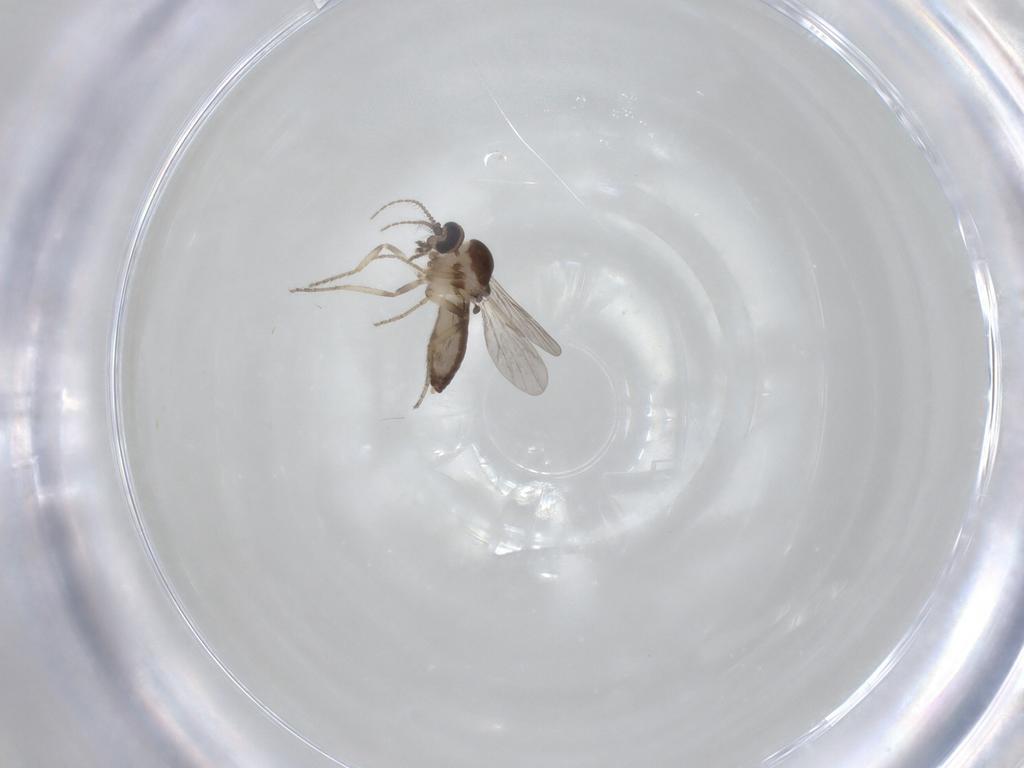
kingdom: Animalia
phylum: Arthropoda
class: Insecta
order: Diptera
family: Ceratopogonidae
